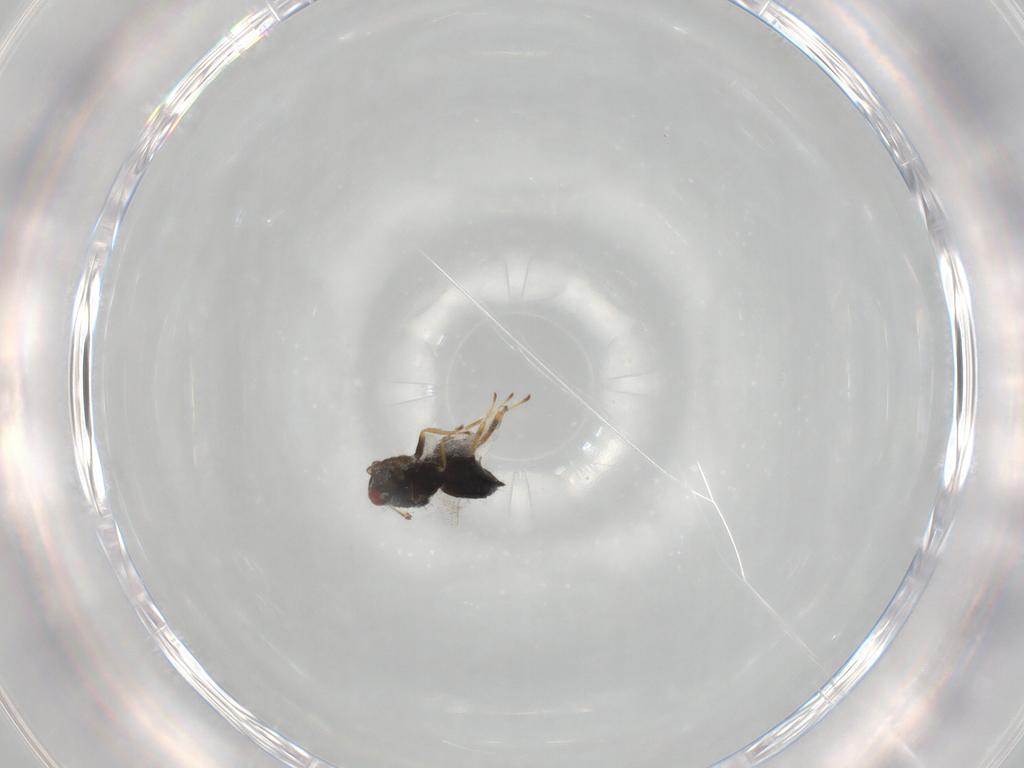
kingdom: Animalia
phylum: Arthropoda
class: Insecta
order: Hymenoptera
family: Eulophidae
